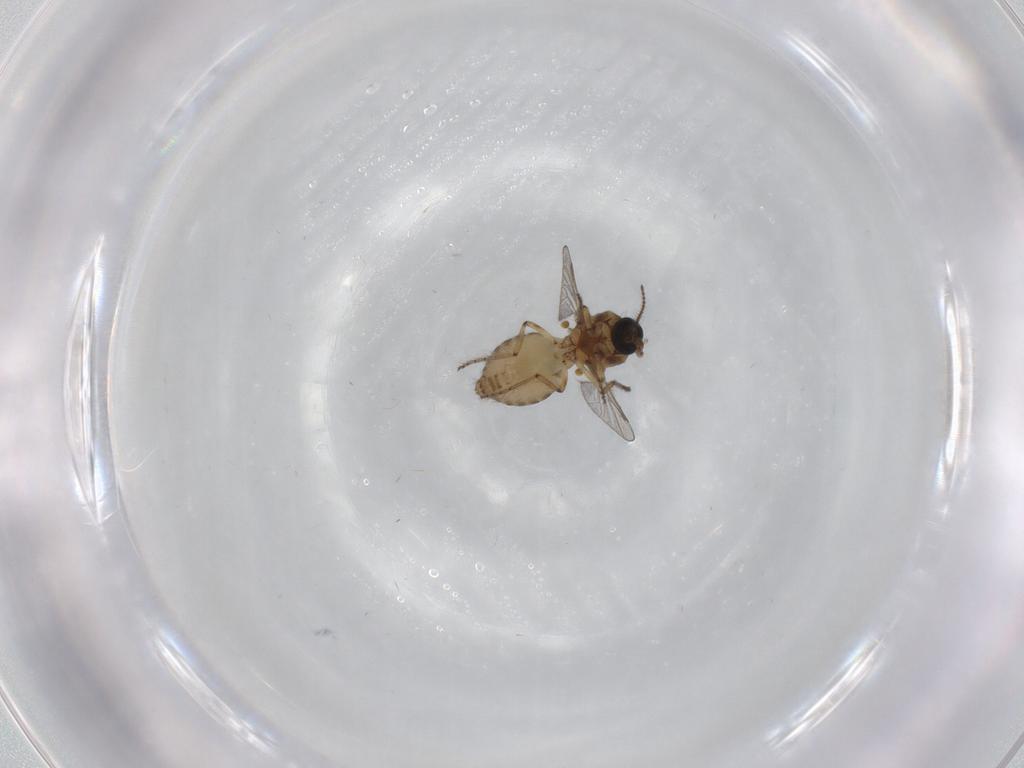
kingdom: Animalia
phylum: Arthropoda
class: Insecta
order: Diptera
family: Ceratopogonidae
